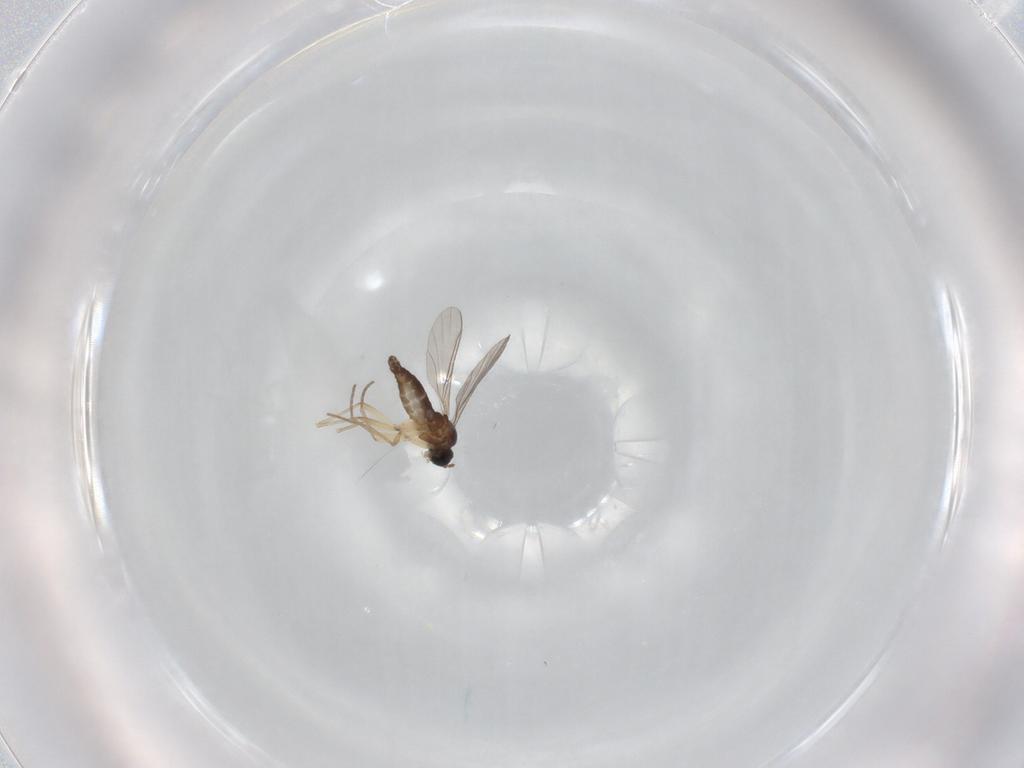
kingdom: Animalia
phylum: Arthropoda
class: Insecta
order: Diptera
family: Sciaridae
